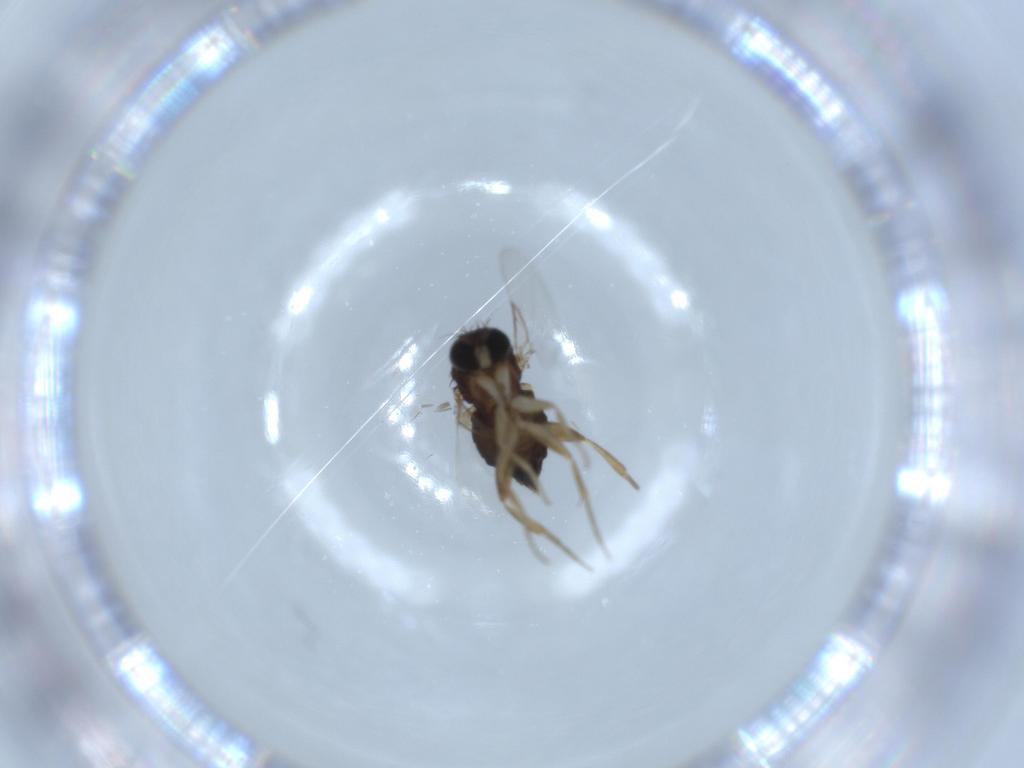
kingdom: Animalia
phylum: Arthropoda
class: Insecta
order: Diptera
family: Phoridae
